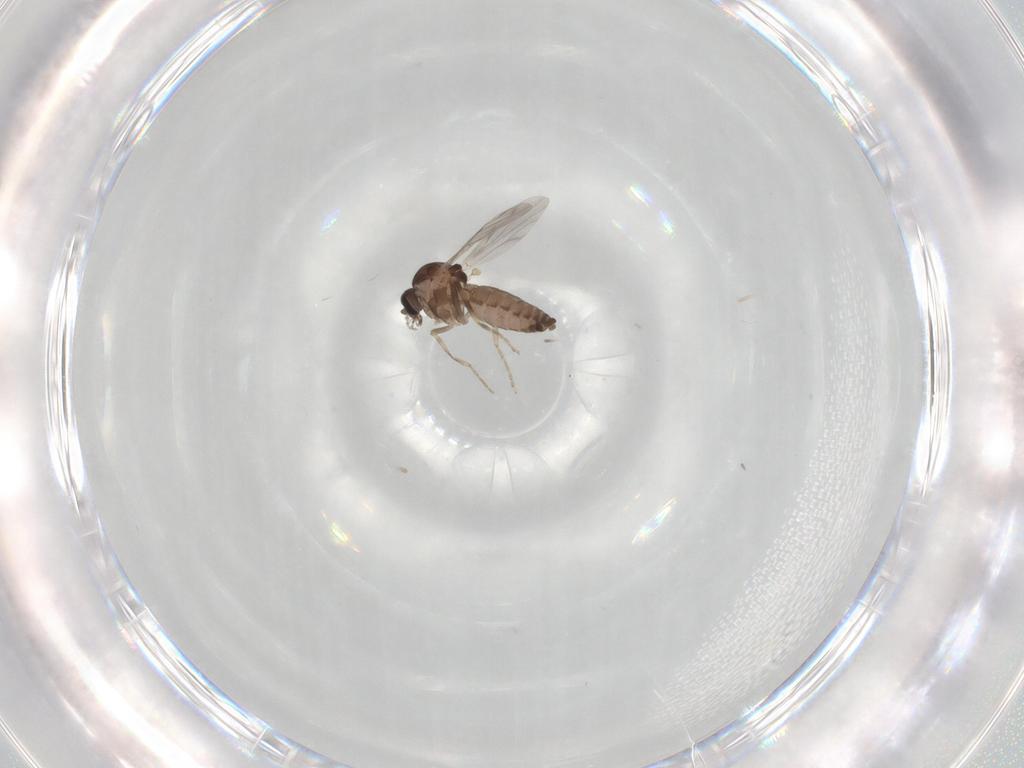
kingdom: Animalia
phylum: Arthropoda
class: Insecta
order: Diptera
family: Ceratopogonidae
